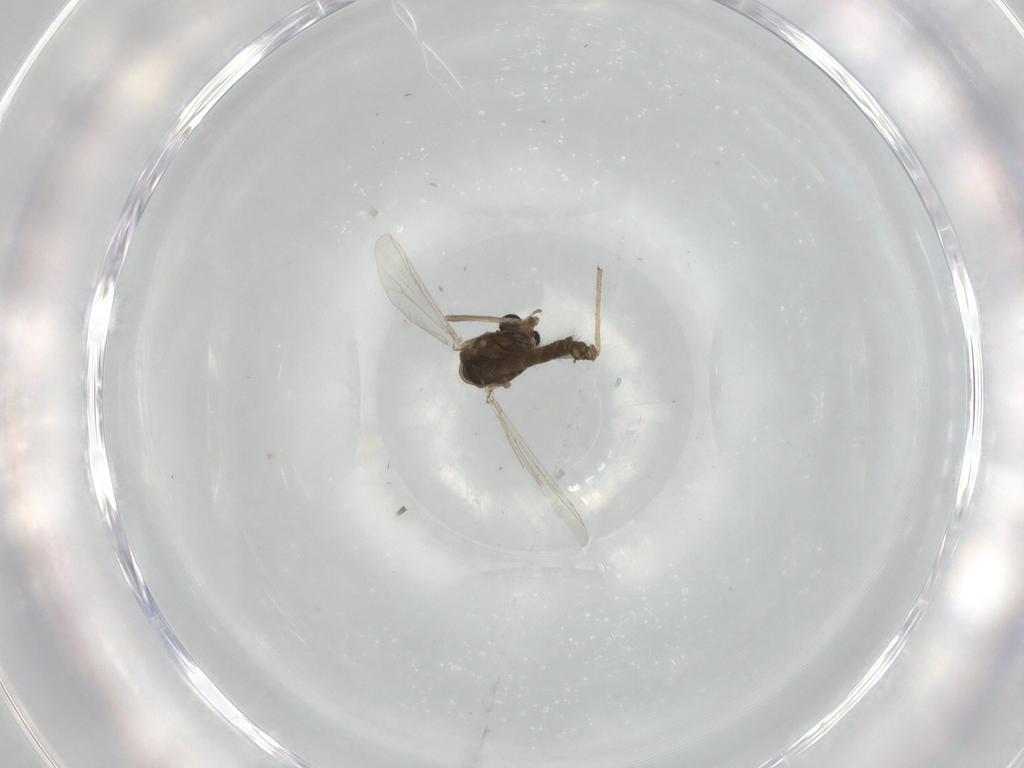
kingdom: Animalia
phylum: Arthropoda
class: Insecta
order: Diptera
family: Chironomidae
